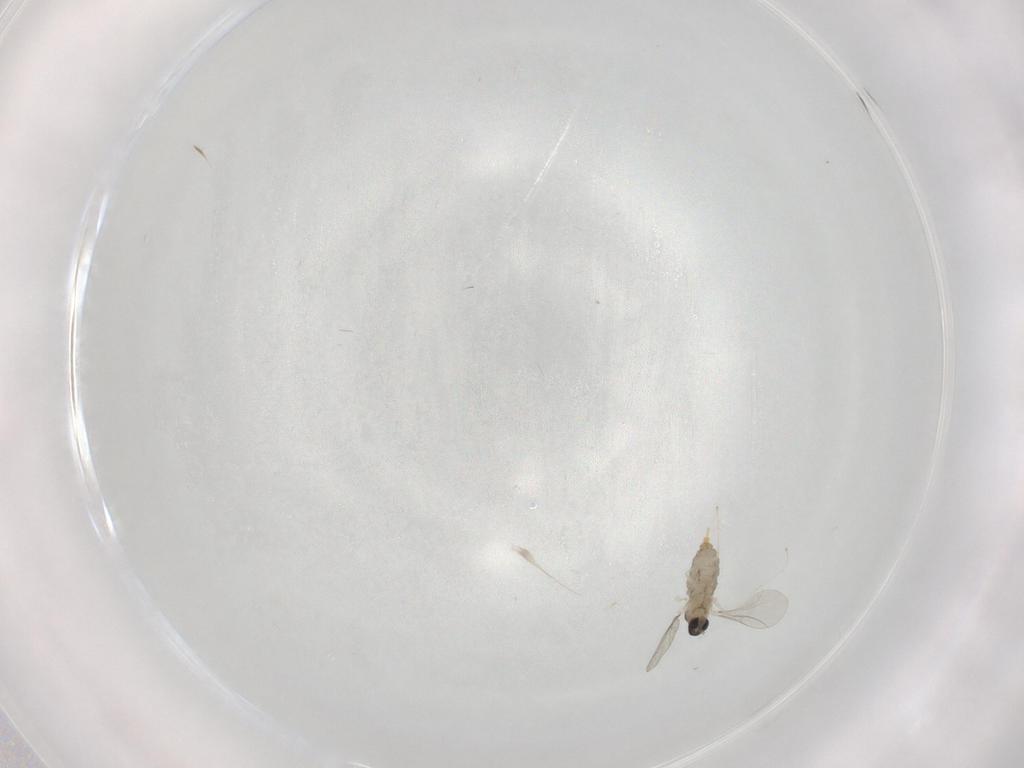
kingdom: Animalia
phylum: Arthropoda
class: Insecta
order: Diptera
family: Cecidomyiidae
